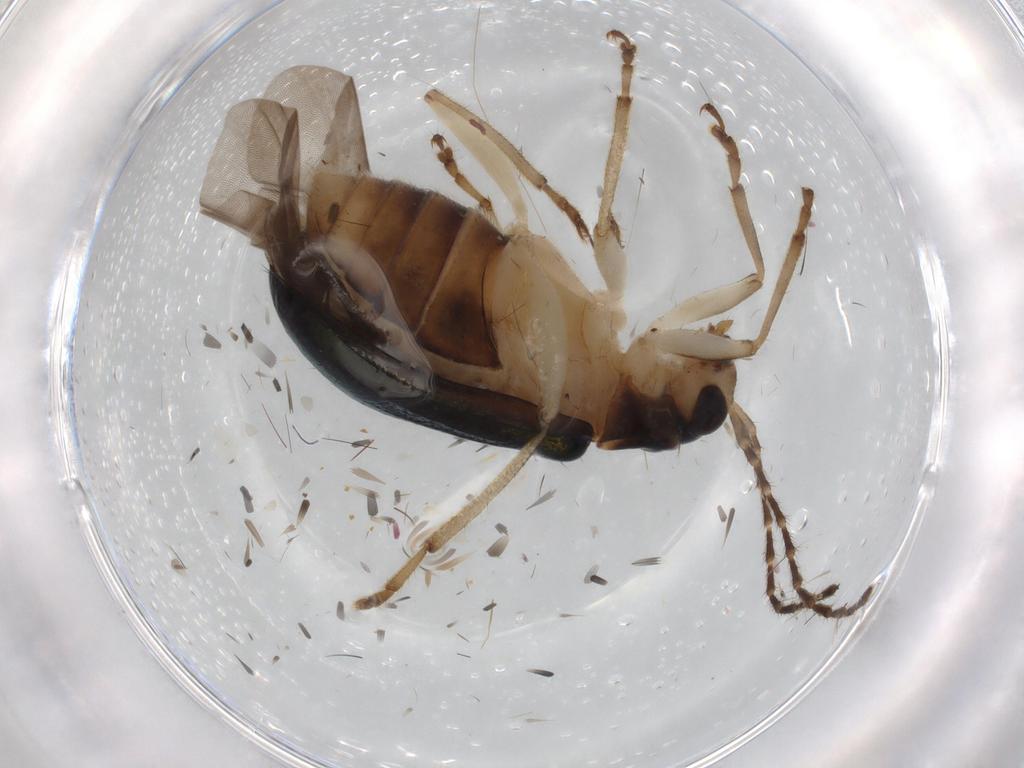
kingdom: Animalia
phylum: Arthropoda
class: Insecta
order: Coleoptera
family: Chrysomelidae
